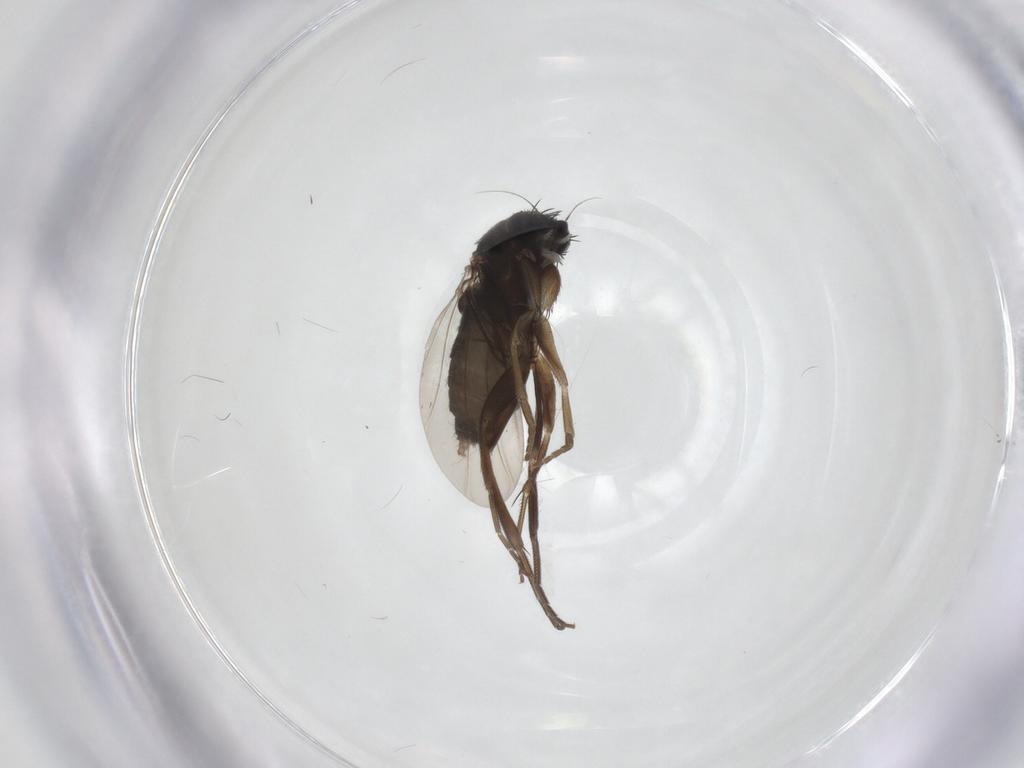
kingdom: Animalia
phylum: Arthropoda
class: Insecta
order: Diptera
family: Phoridae
